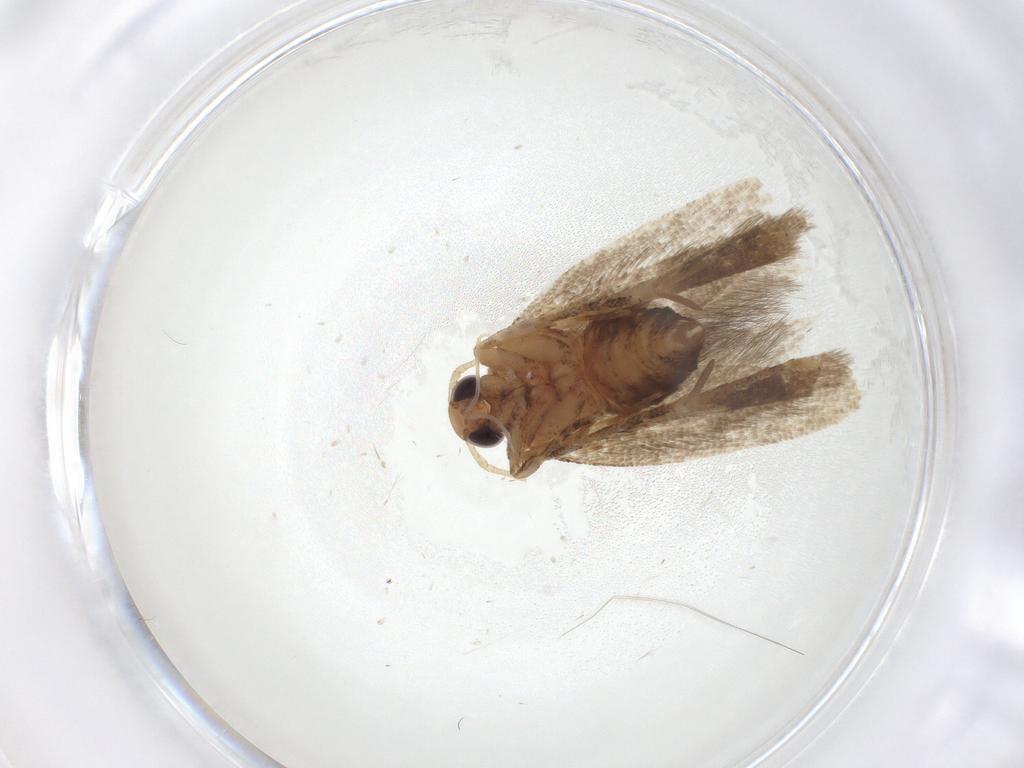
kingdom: Animalia
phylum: Arthropoda
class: Insecta
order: Lepidoptera
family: Gelechiidae
